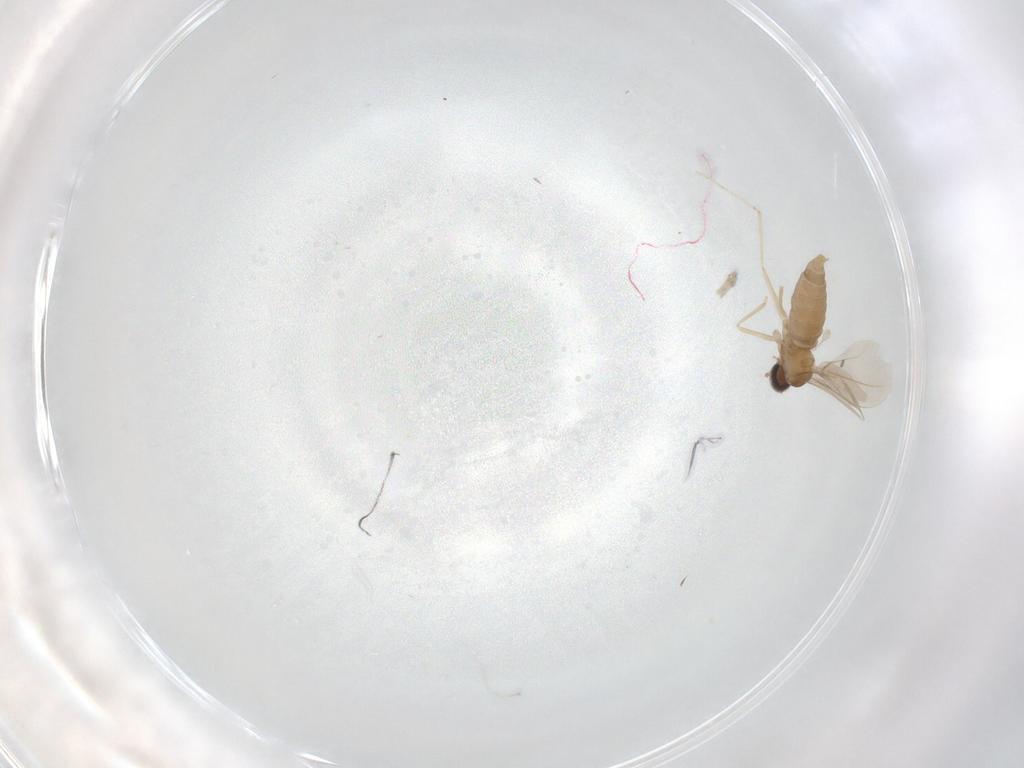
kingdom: Animalia
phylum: Arthropoda
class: Insecta
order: Diptera
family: Cecidomyiidae
